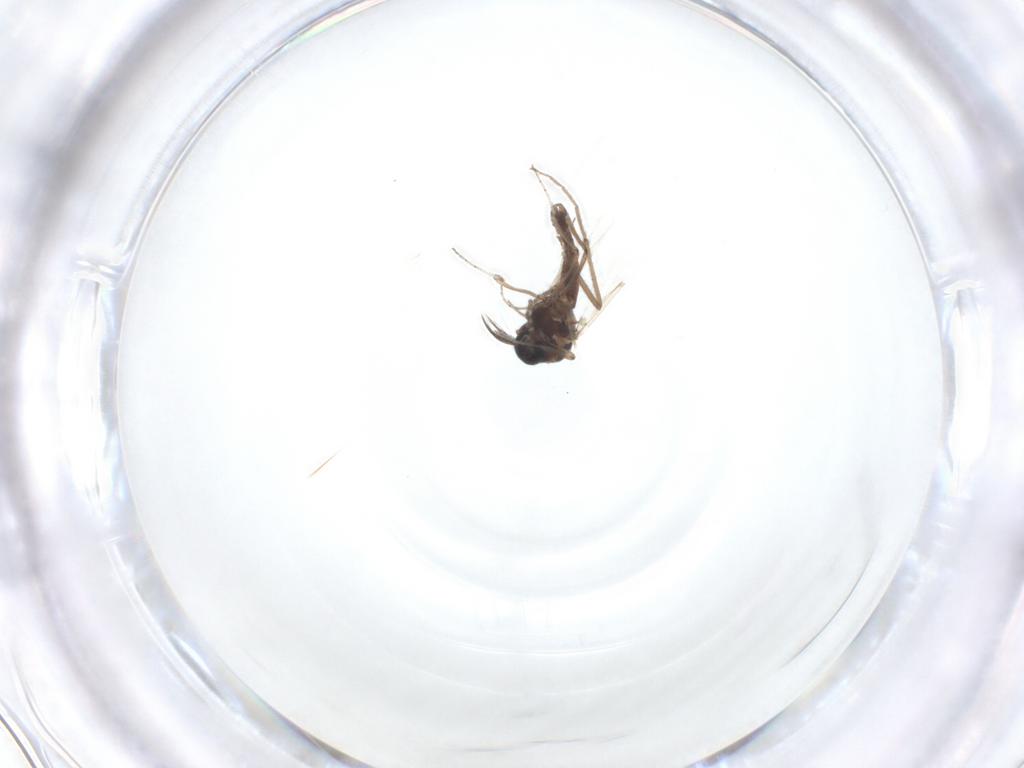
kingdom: Animalia
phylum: Arthropoda
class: Insecta
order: Diptera
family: Ceratopogonidae
